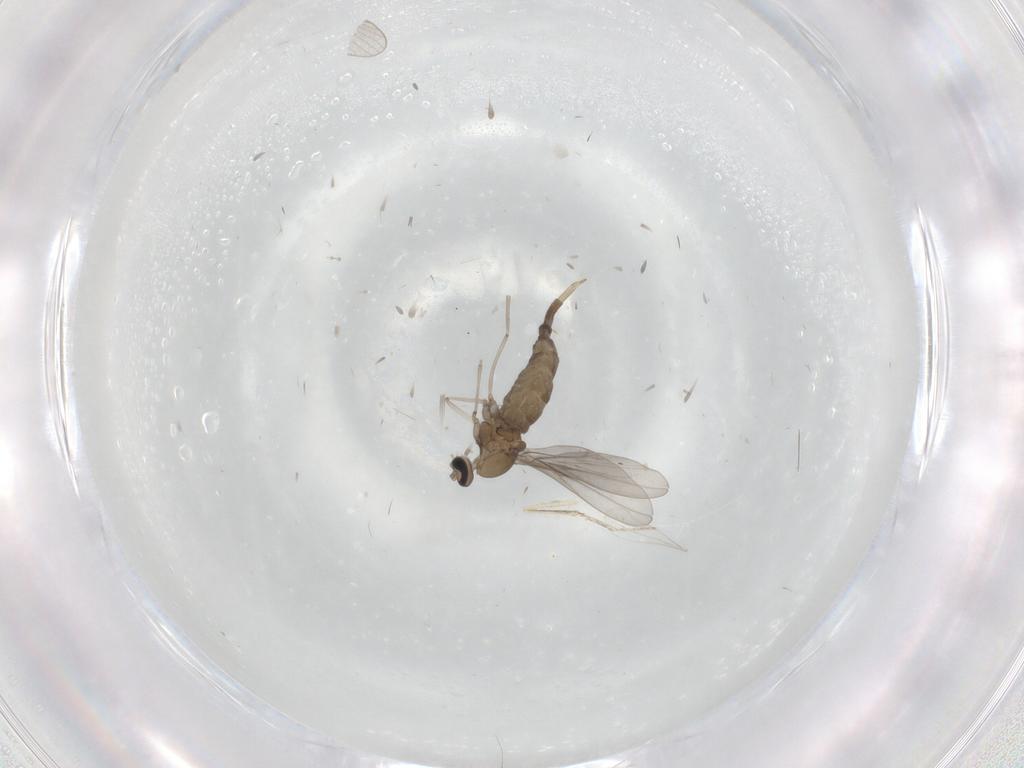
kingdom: Animalia
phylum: Arthropoda
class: Insecta
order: Diptera
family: Cecidomyiidae
